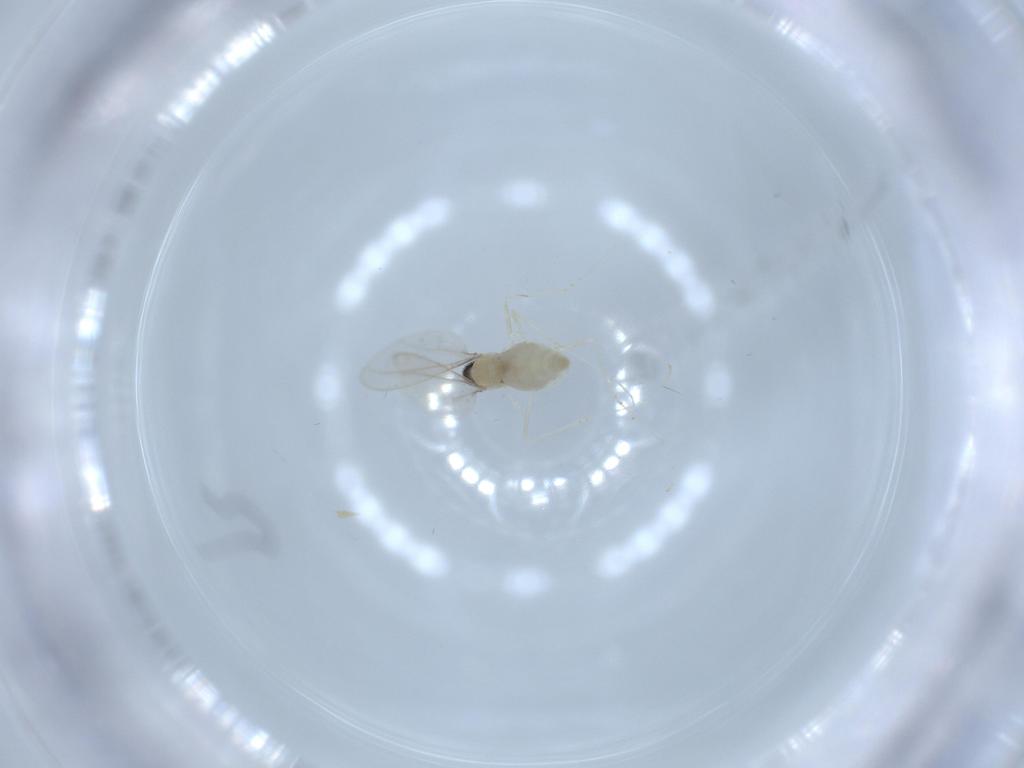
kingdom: Animalia
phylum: Arthropoda
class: Insecta
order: Diptera
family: Cecidomyiidae
